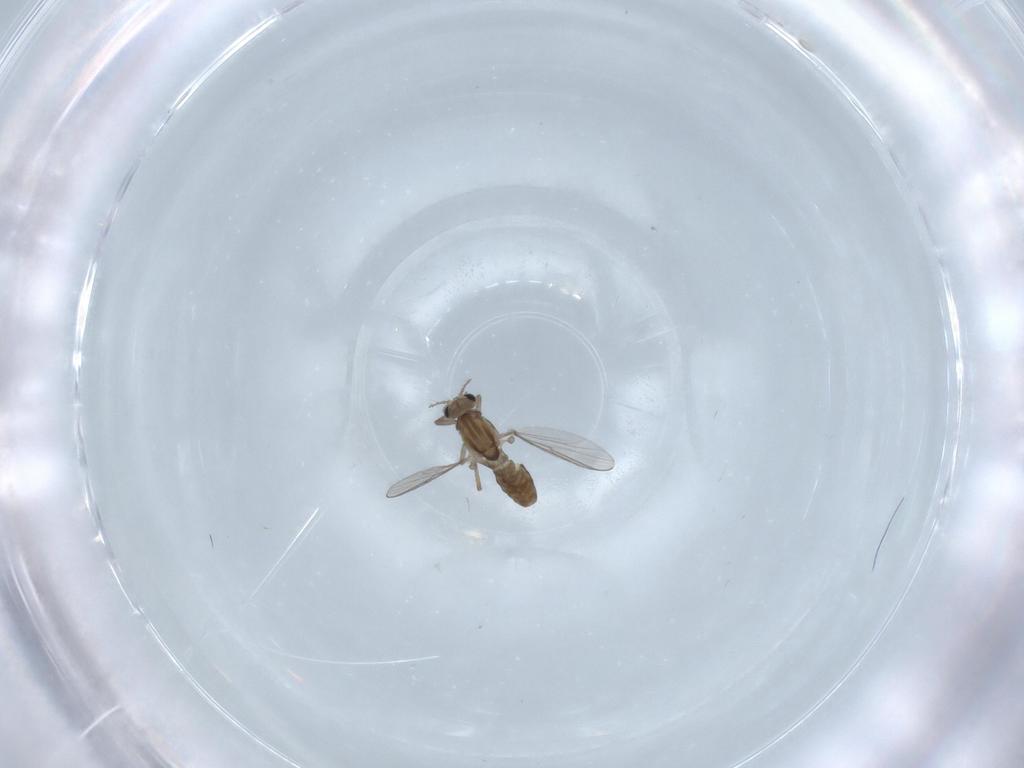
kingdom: Animalia
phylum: Arthropoda
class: Insecta
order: Diptera
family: Chironomidae
